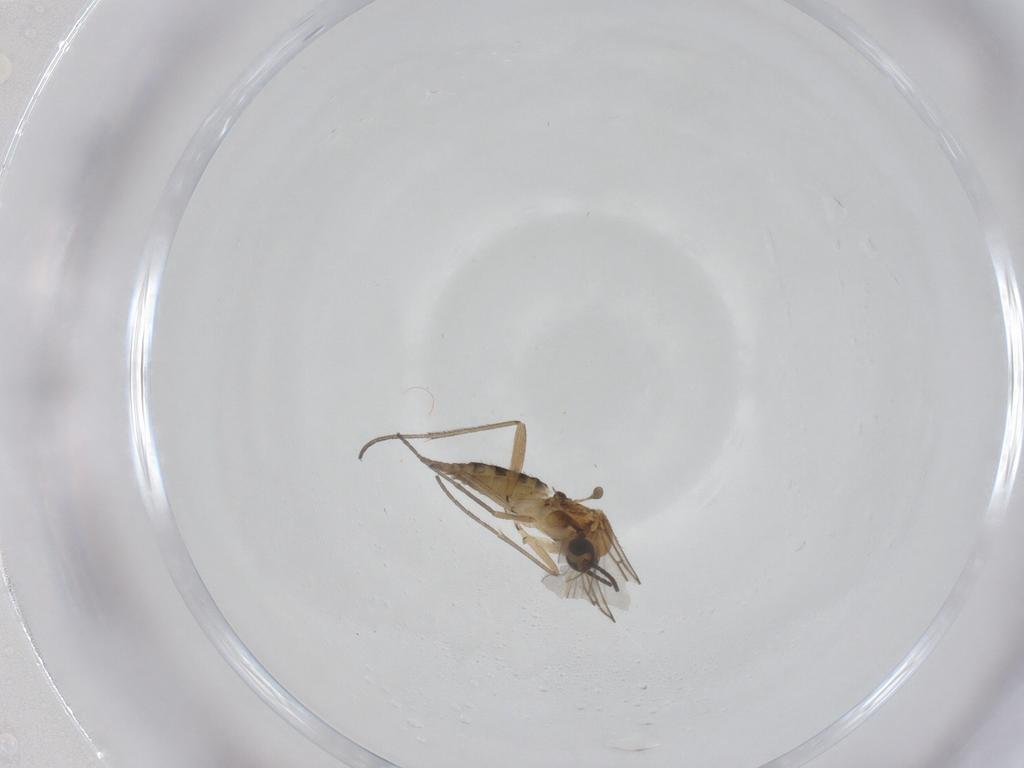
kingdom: Animalia
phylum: Arthropoda
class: Insecta
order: Diptera
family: Sciaridae
